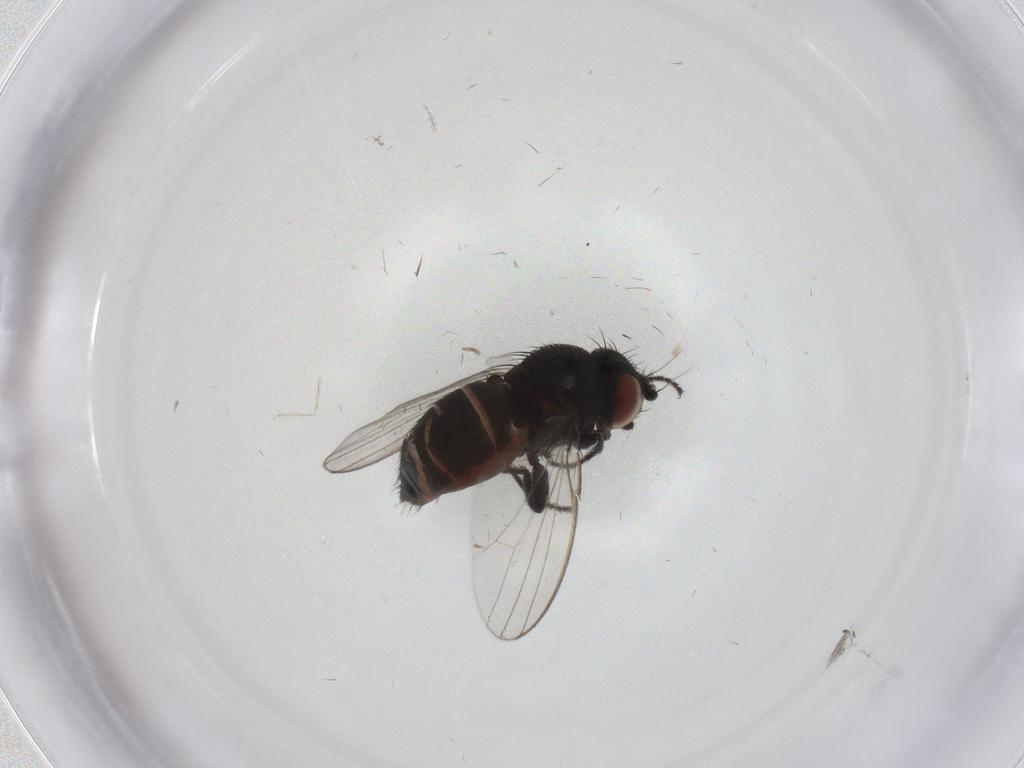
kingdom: Animalia
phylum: Arthropoda
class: Insecta
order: Diptera
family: Milichiidae
